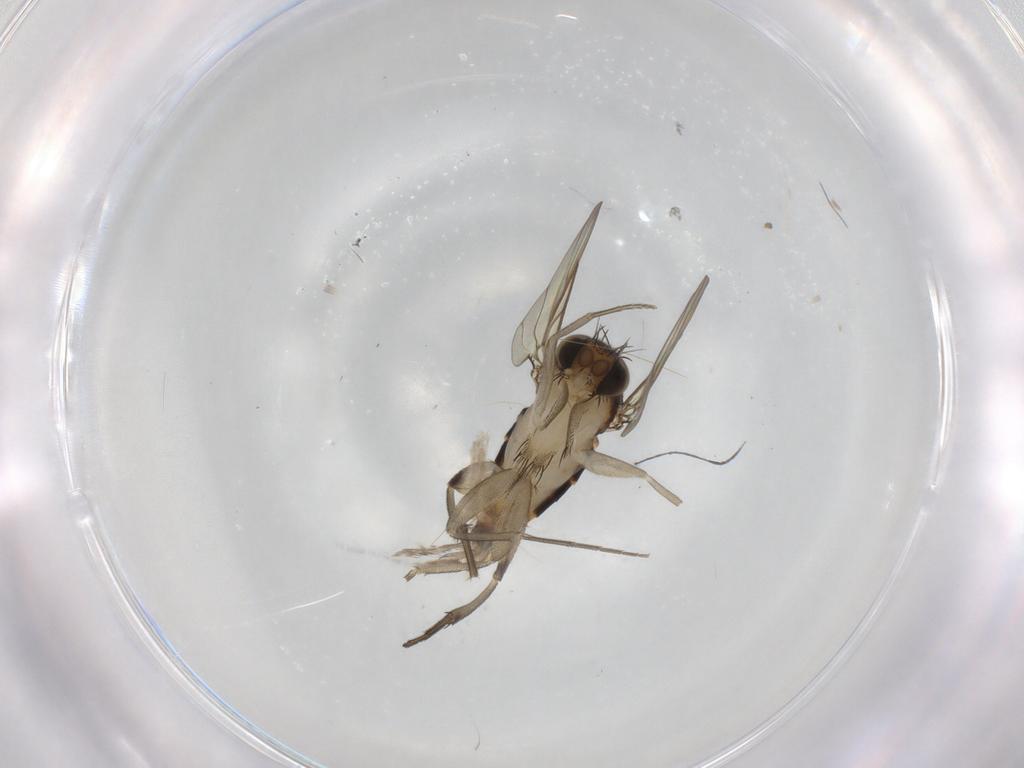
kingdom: Animalia
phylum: Arthropoda
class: Insecta
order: Diptera
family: Phoridae
